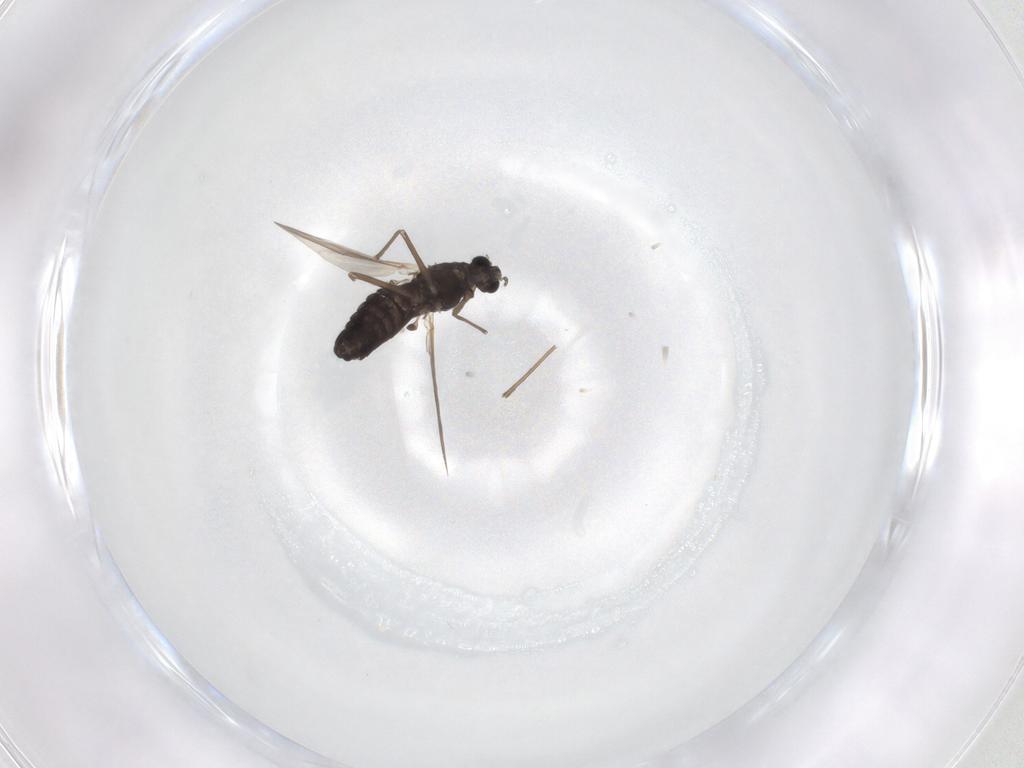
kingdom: Animalia
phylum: Arthropoda
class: Insecta
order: Diptera
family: Chironomidae
